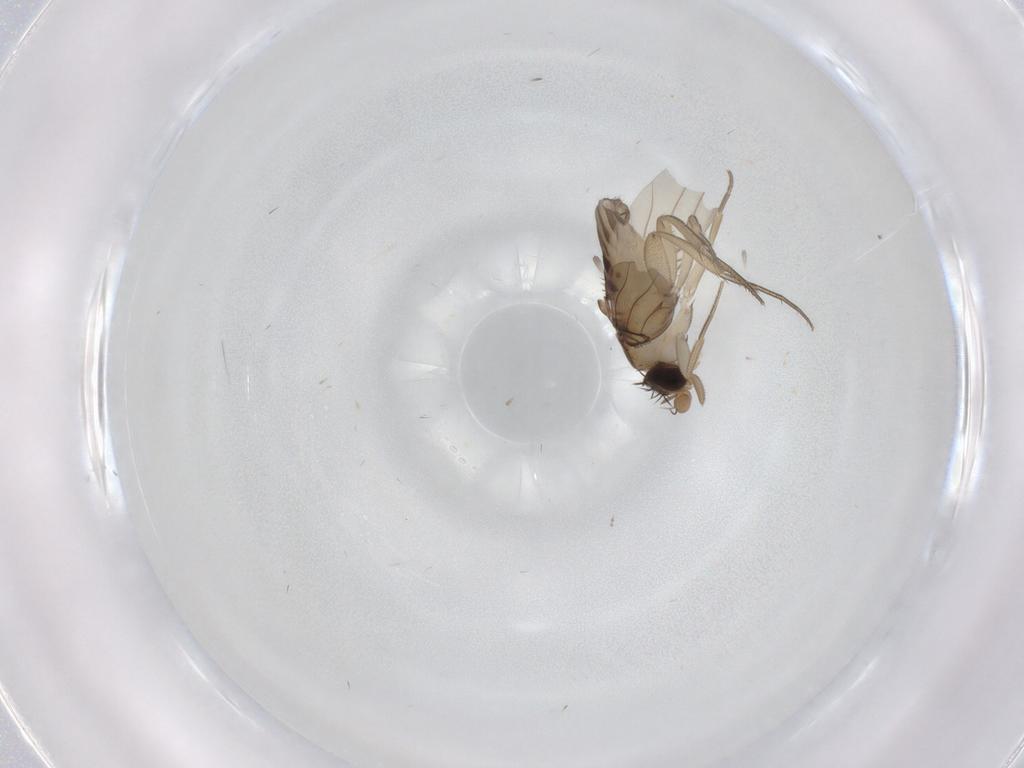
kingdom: Animalia
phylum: Arthropoda
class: Insecta
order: Diptera
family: Phoridae
